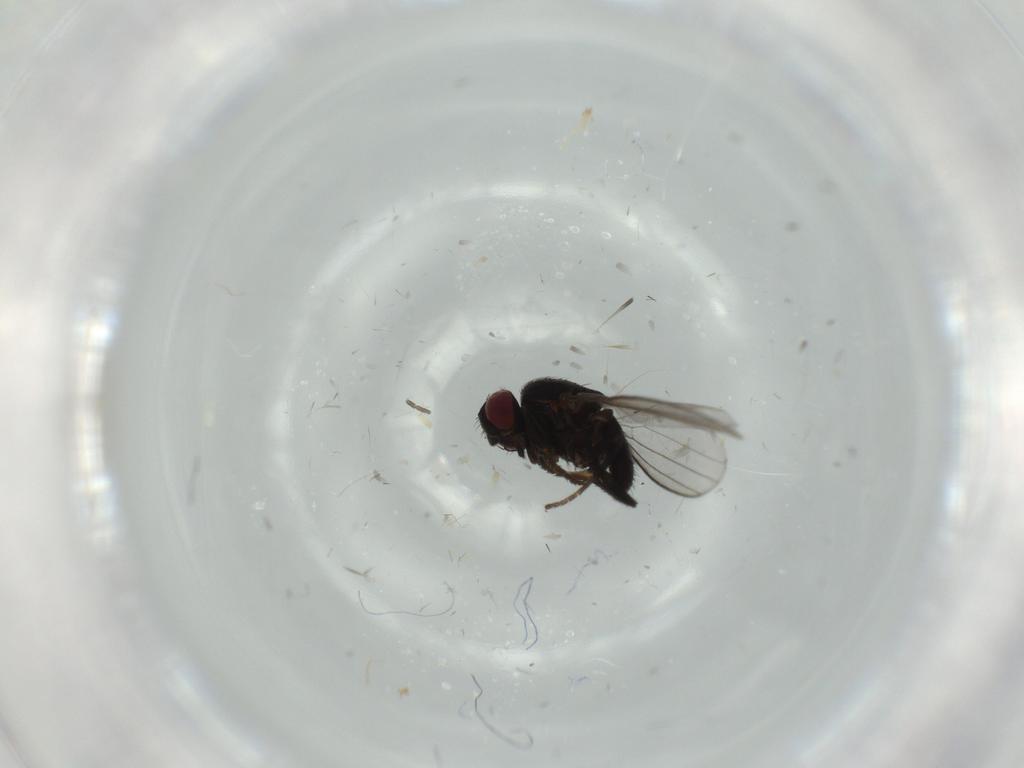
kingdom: Animalia
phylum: Arthropoda
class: Insecta
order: Diptera
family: Milichiidae
